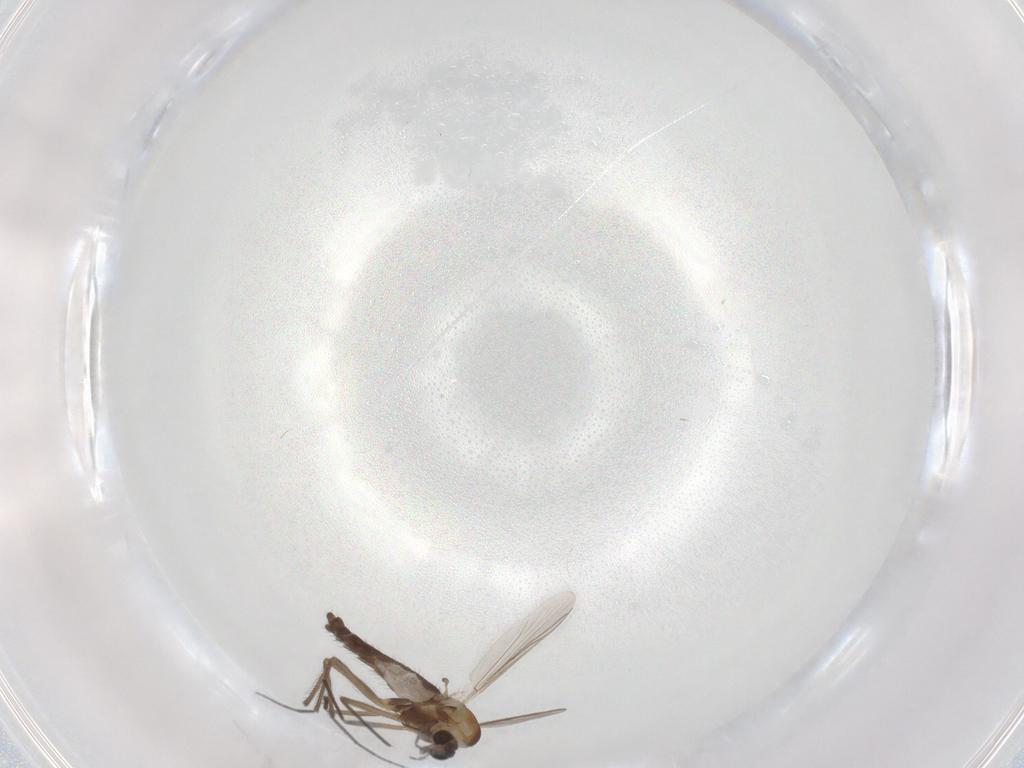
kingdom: Animalia
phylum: Arthropoda
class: Insecta
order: Diptera
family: Chironomidae
